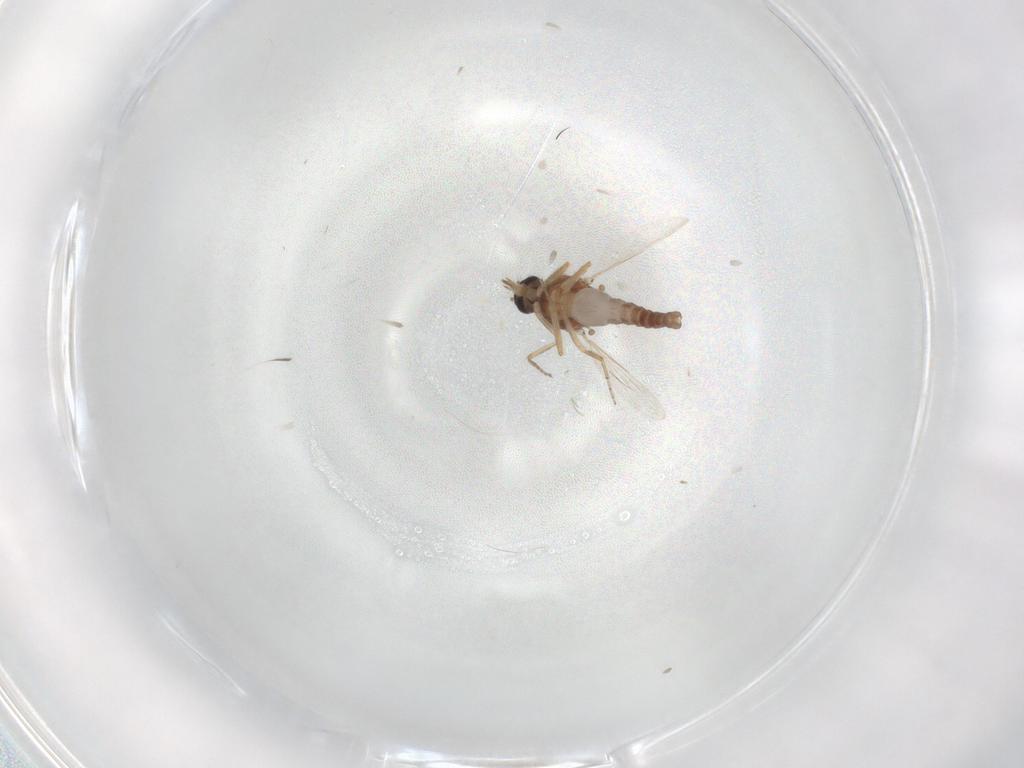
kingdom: Animalia
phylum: Arthropoda
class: Insecta
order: Diptera
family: Ceratopogonidae
